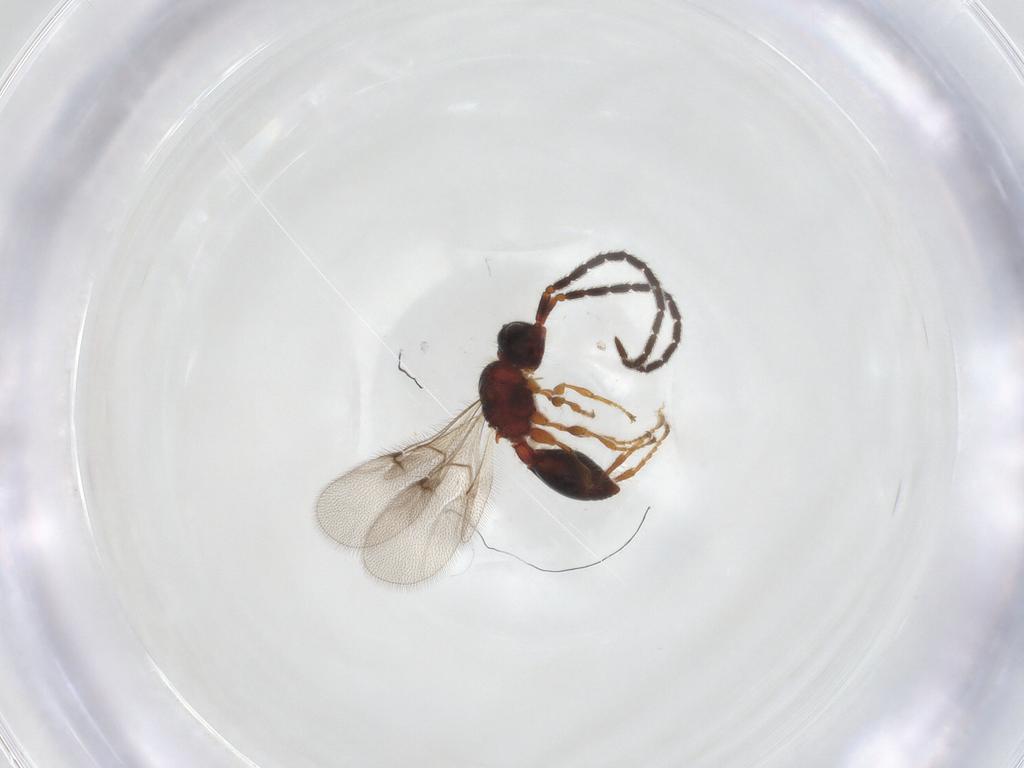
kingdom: Animalia
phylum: Arthropoda
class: Insecta
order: Hymenoptera
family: Diapriidae
